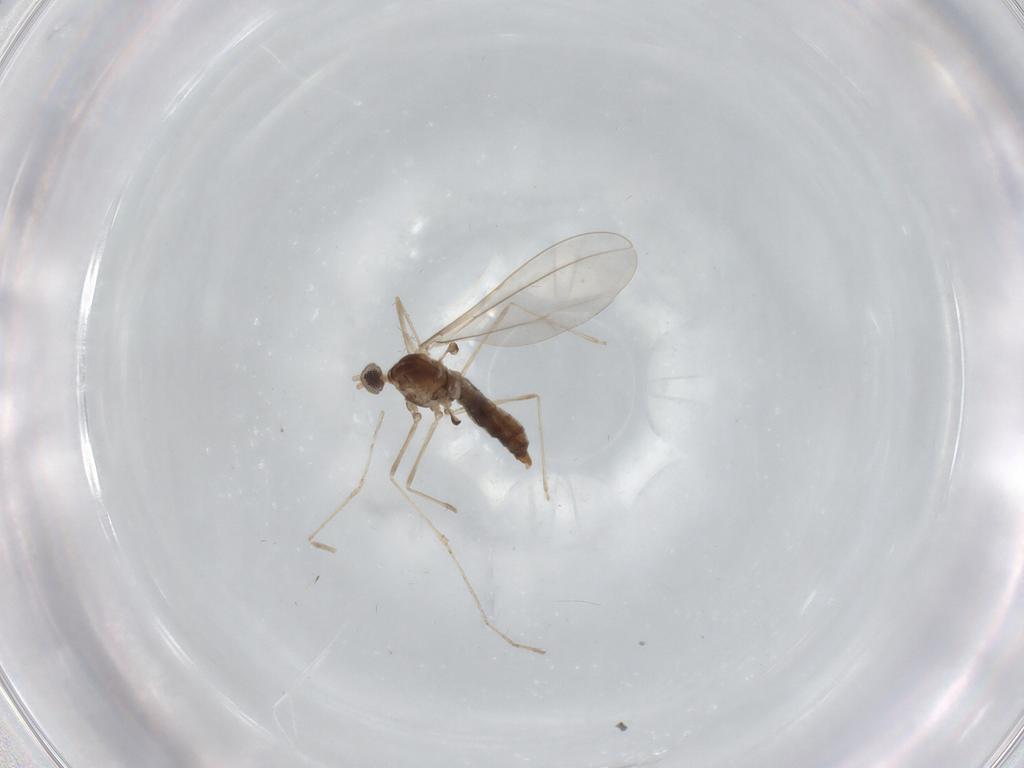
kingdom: Animalia
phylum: Arthropoda
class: Insecta
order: Diptera
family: Cecidomyiidae
